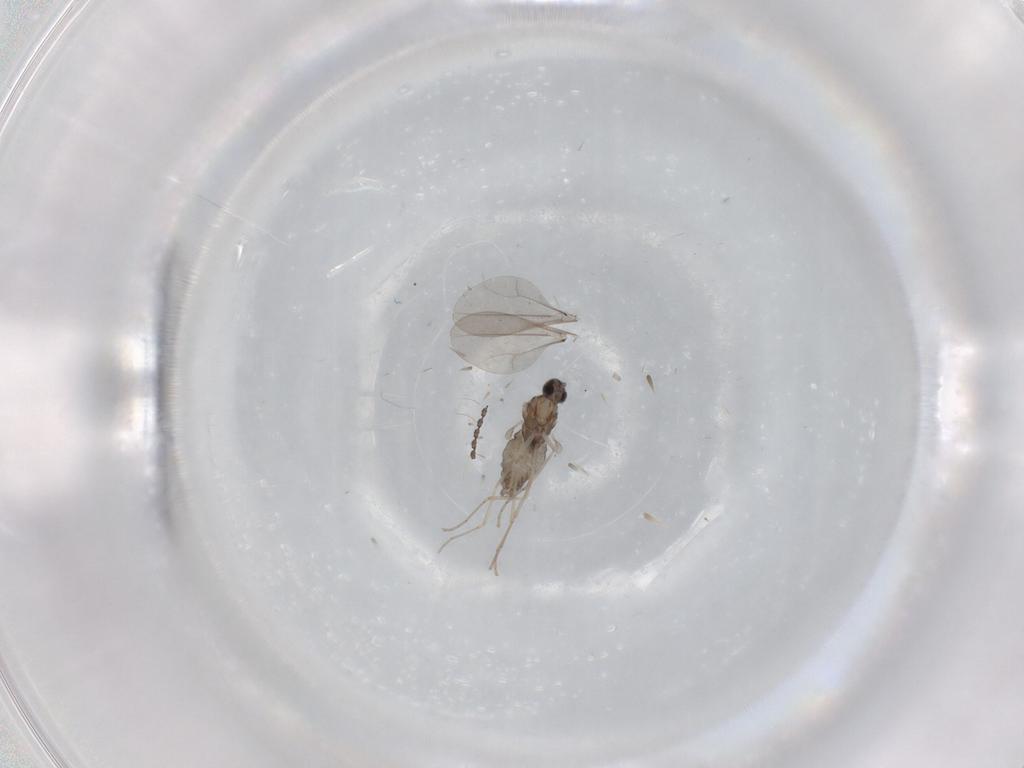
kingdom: Animalia
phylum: Arthropoda
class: Insecta
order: Diptera
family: Cecidomyiidae
